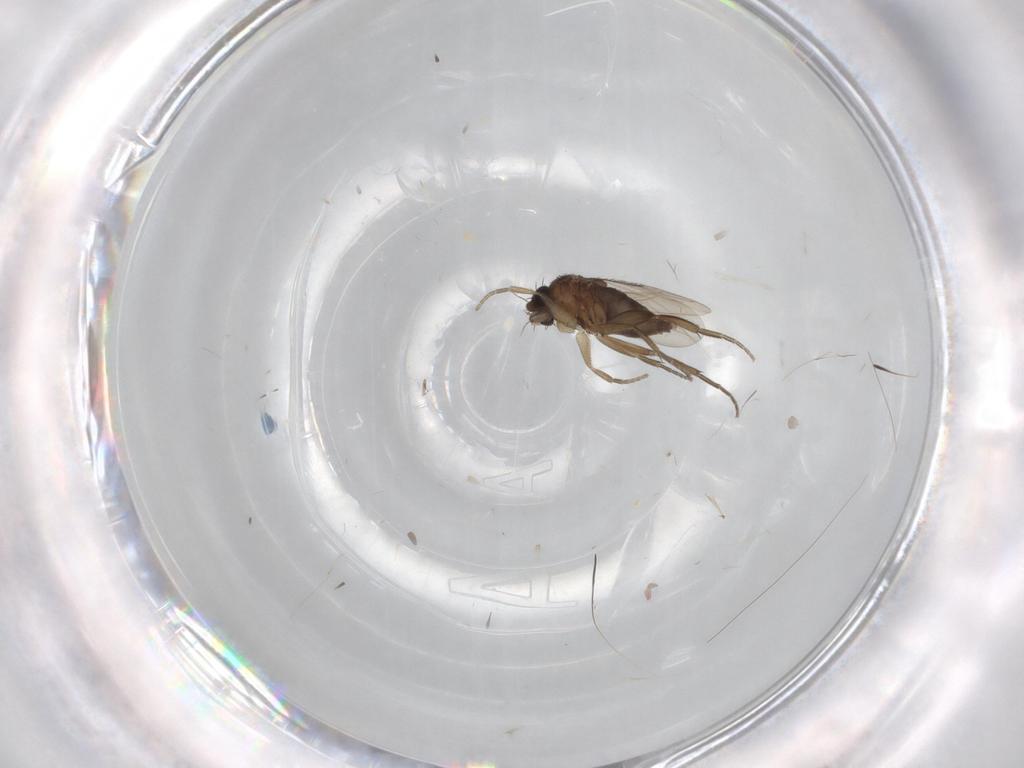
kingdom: Animalia
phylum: Arthropoda
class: Insecta
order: Diptera
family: Phoridae
